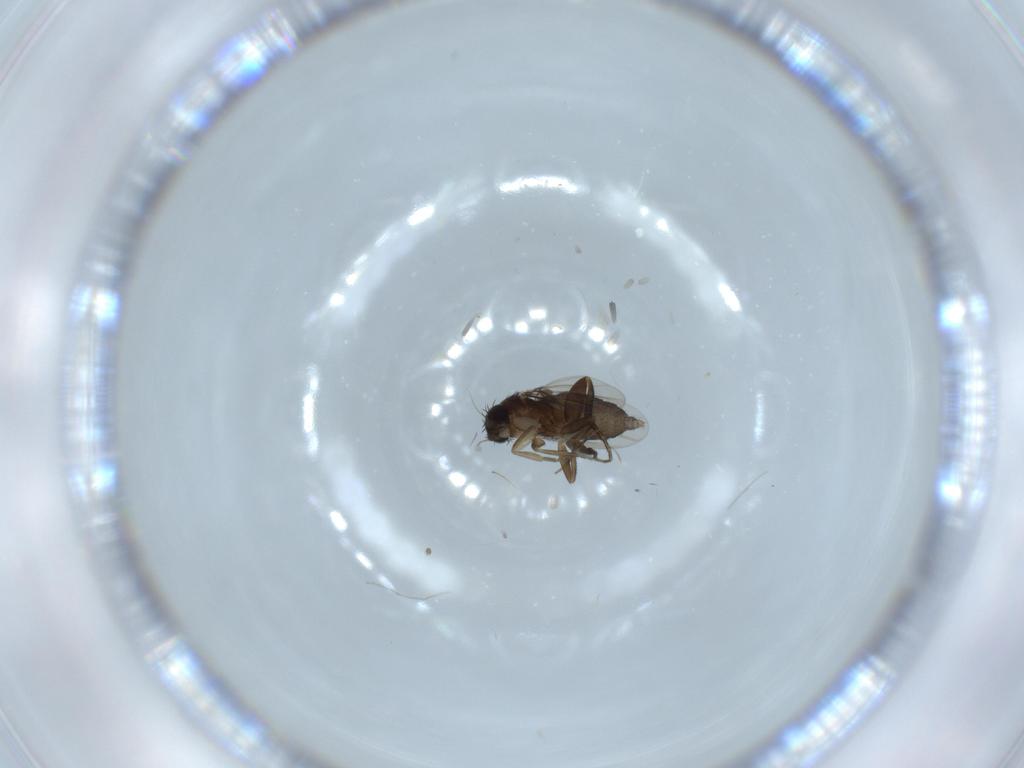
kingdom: Animalia
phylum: Arthropoda
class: Insecta
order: Diptera
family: Phoridae
